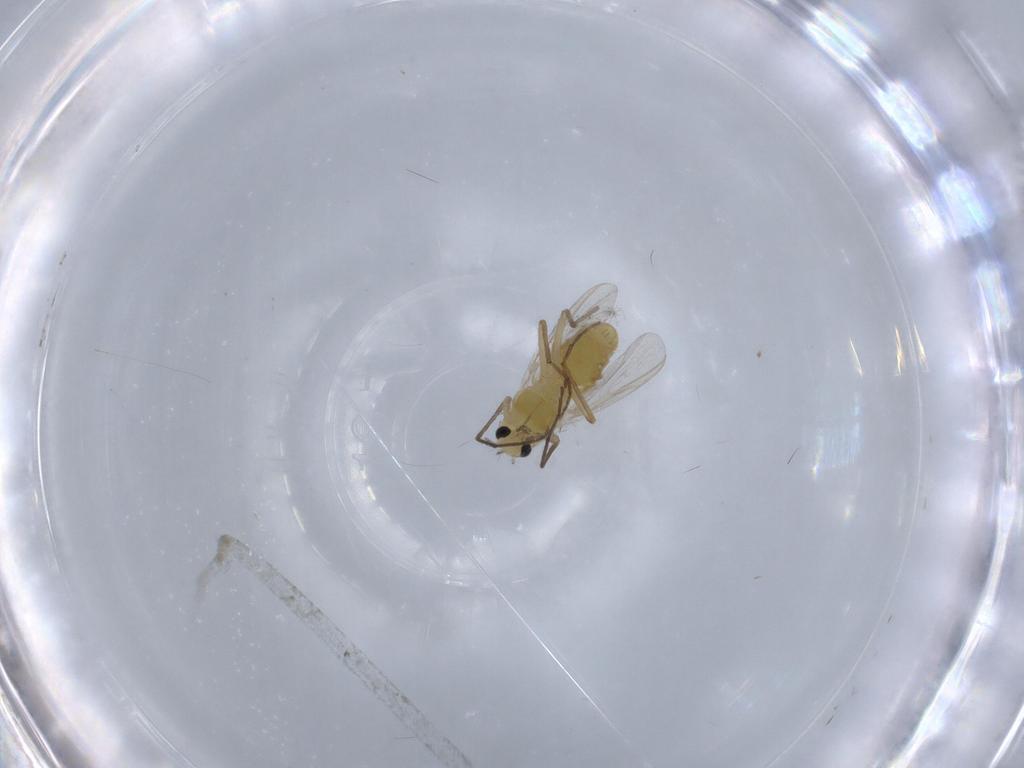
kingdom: Animalia
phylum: Arthropoda
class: Insecta
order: Diptera
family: Chironomidae
